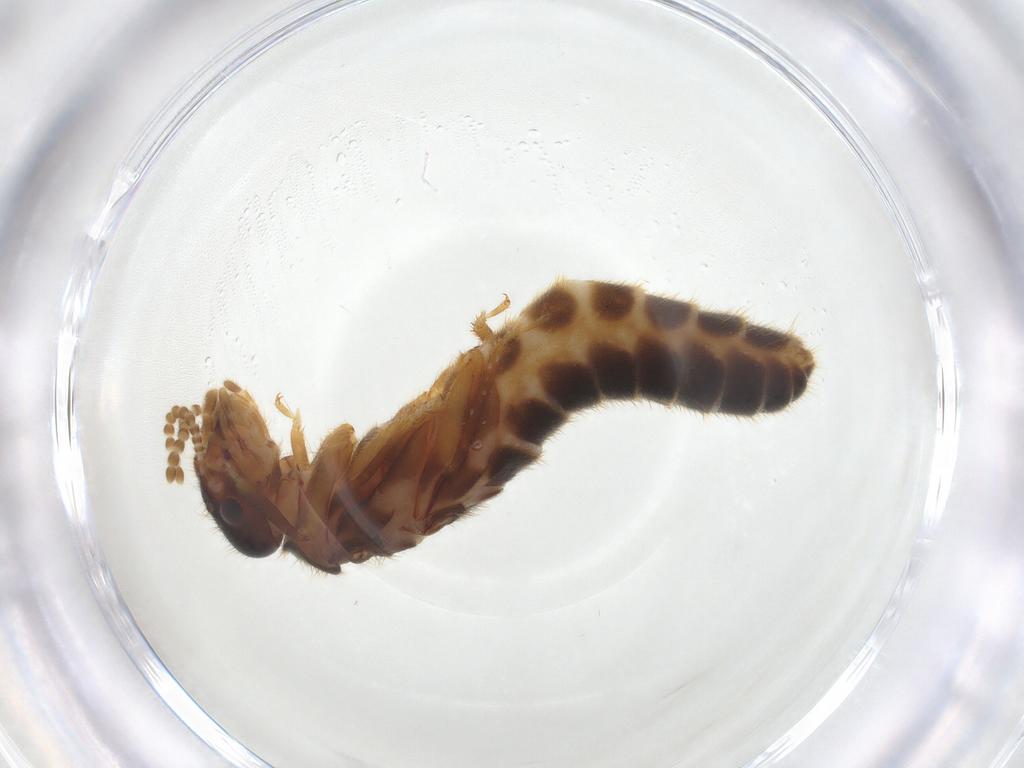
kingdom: Animalia
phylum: Arthropoda
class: Insecta
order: Blattodea
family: Termitidae
